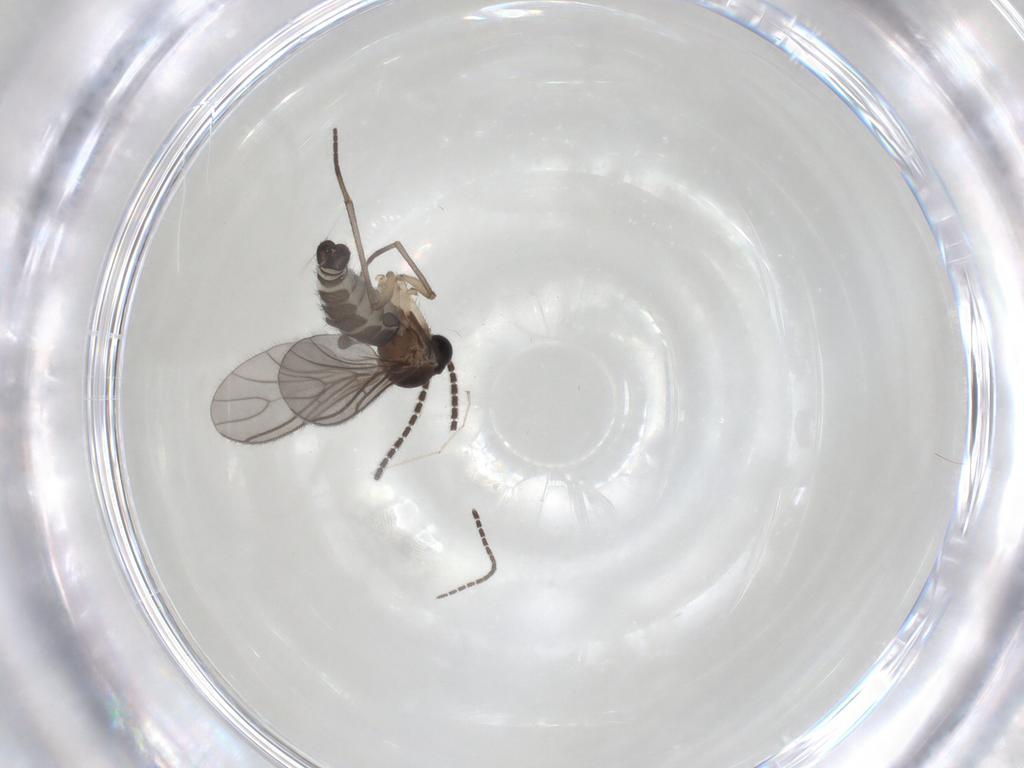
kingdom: Animalia
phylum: Arthropoda
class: Insecta
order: Diptera
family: Sciaridae
